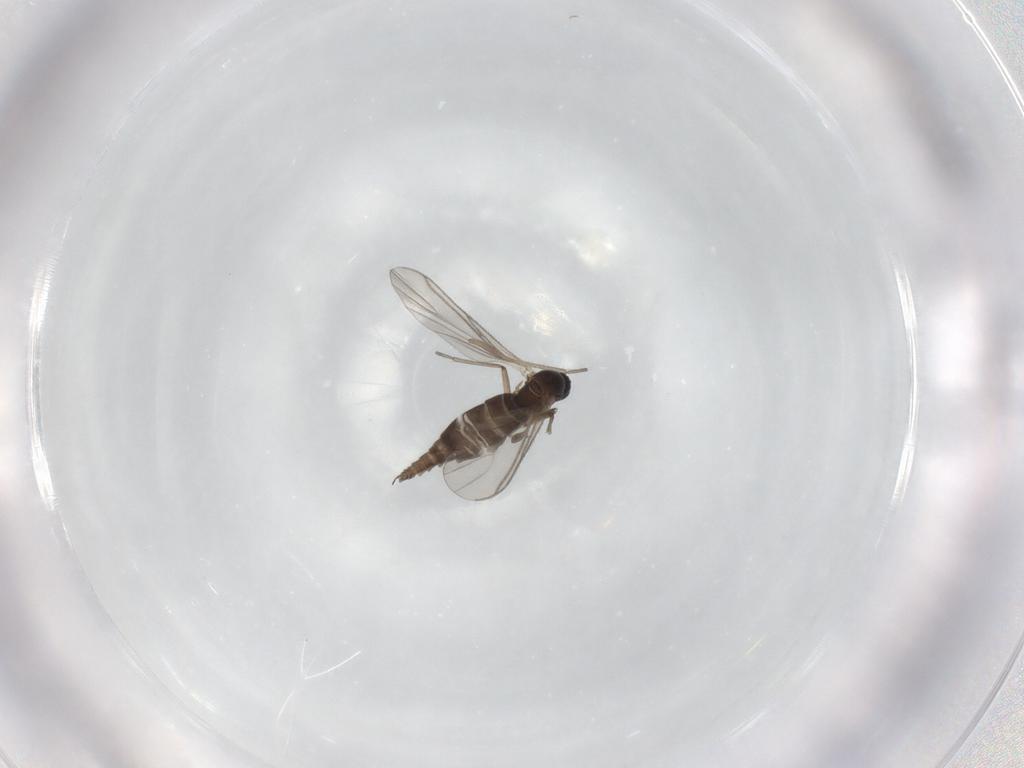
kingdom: Animalia
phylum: Arthropoda
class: Insecta
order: Diptera
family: Sciaridae
